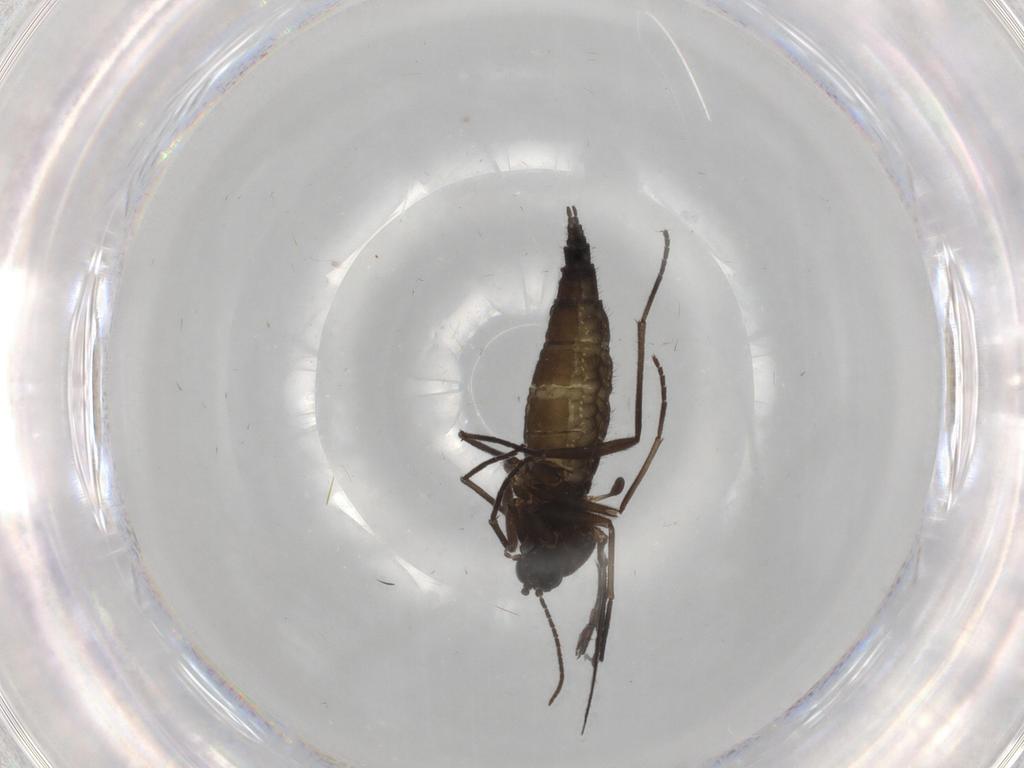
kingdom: Animalia
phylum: Arthropoda
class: Insecta
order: Diptera
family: Sciaridae
